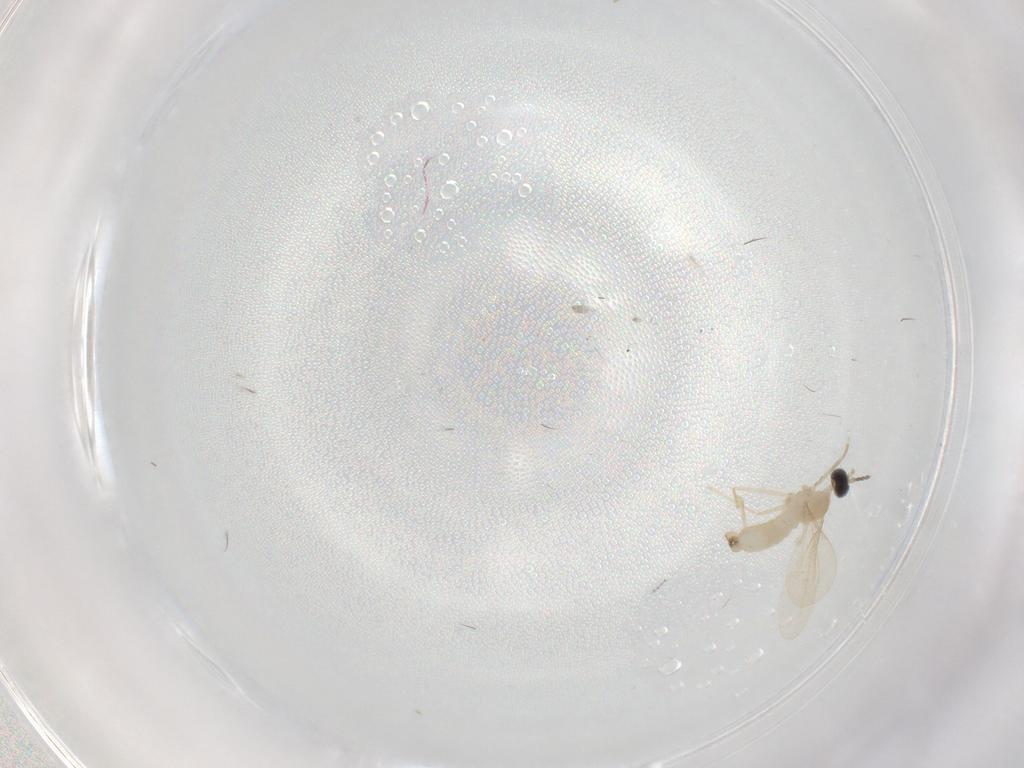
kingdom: Animalia
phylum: Arthropoda
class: Insecta
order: Diptera
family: Cecidomyiidae
